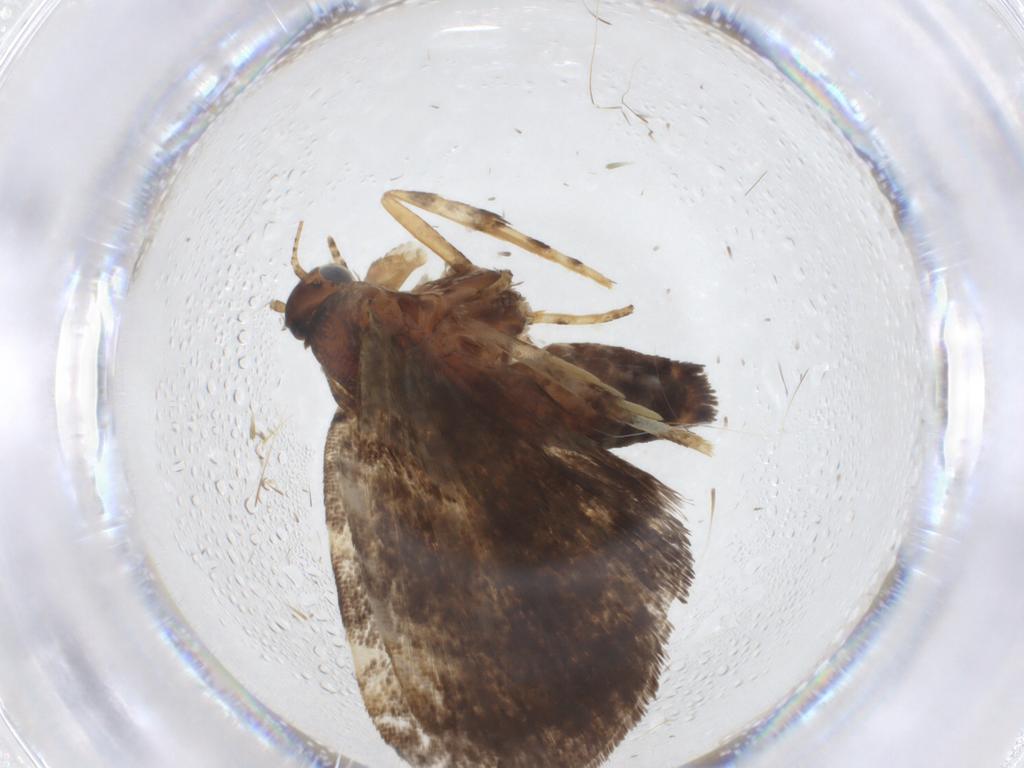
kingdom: Animalia
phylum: Arthropoda
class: Insecta
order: Lepidoptera
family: Choreutidae
